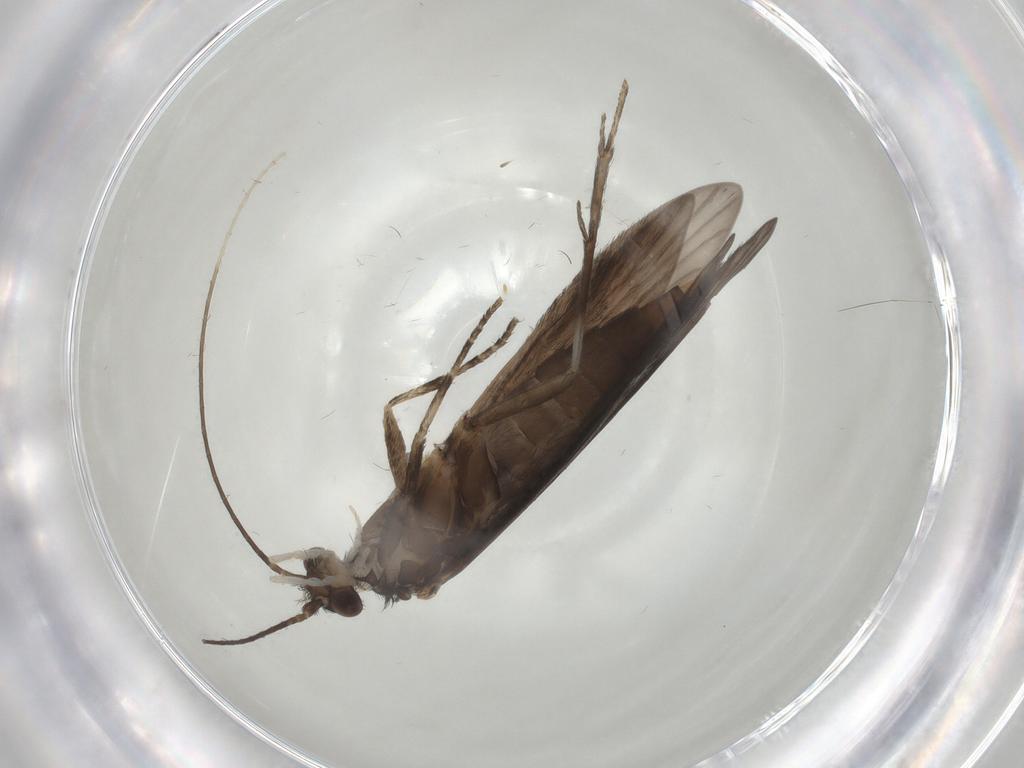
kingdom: Animalia
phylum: Arthropoda
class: Insecta
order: Trichoptera
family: Xiphocentronidae
